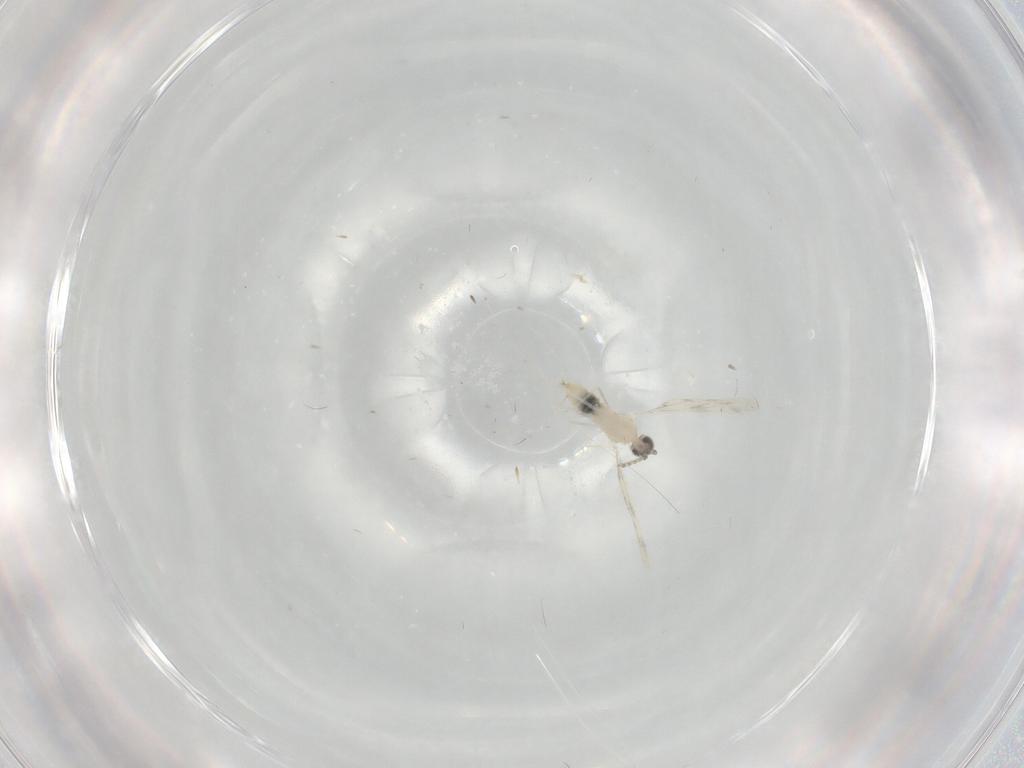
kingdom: Animalia
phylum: Arthropoda
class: Insecta
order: Diptera
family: Cecidomyiidae
